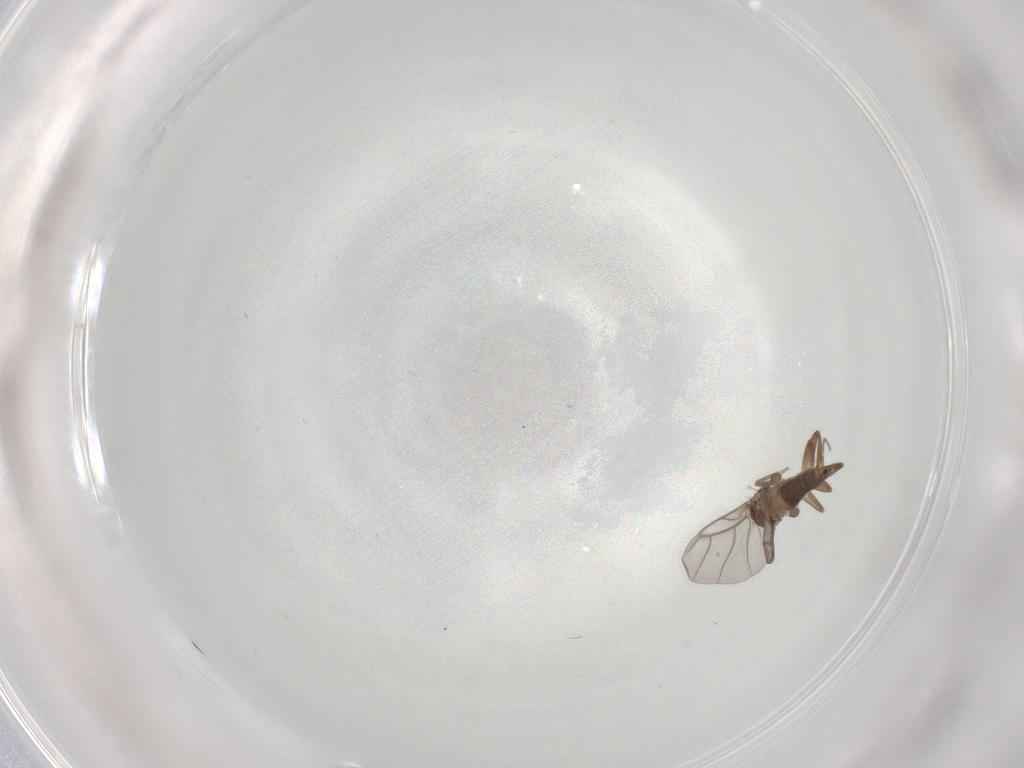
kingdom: Animalia
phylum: Arthropoda
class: Insecta
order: Diptera
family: Cecidomyiidae
